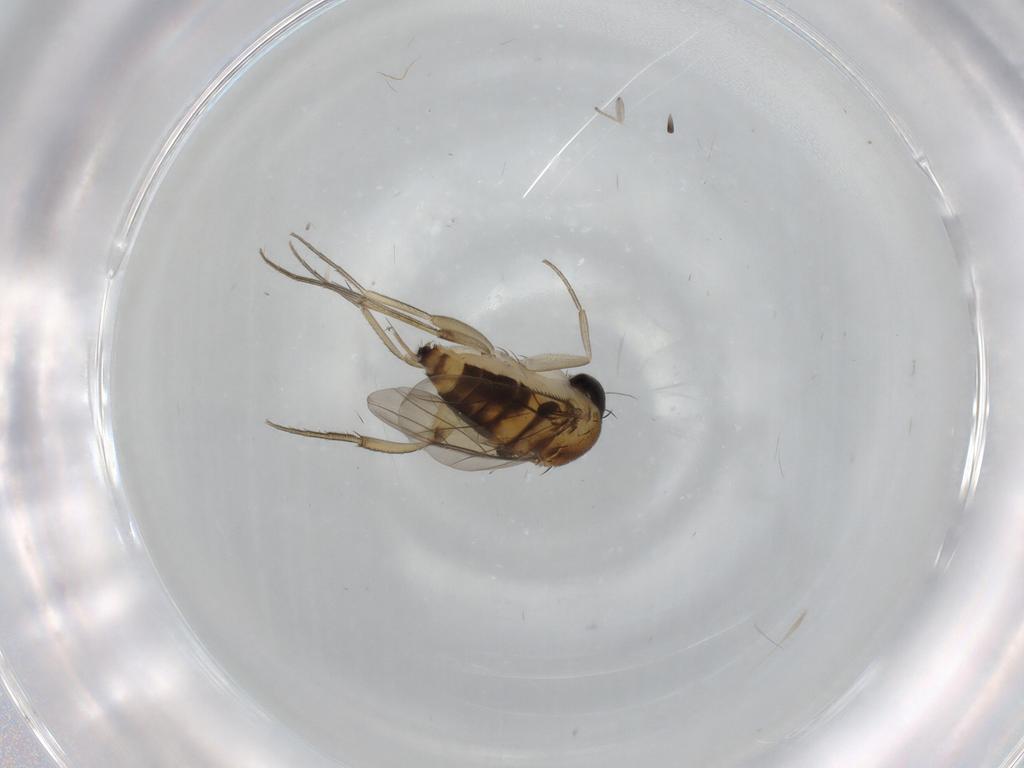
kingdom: Animalia
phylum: Arthropoda
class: Insecta
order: Diptera
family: Phoridae
